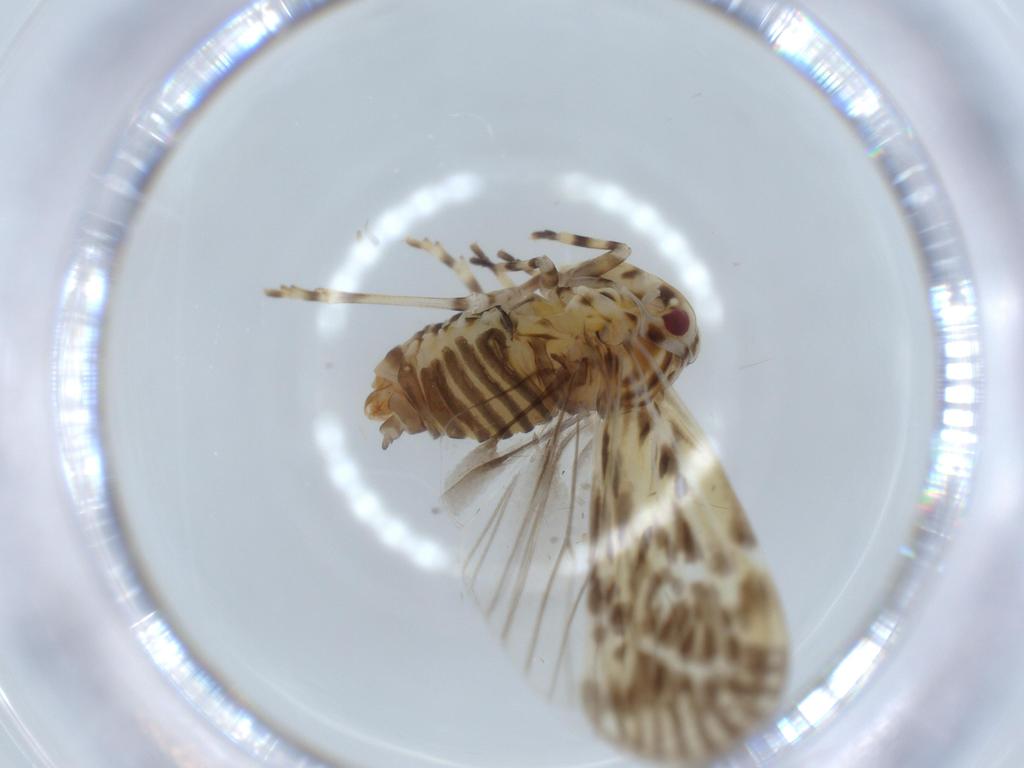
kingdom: Animalia
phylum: Arthropoda
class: Insecta
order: Hemiptera
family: Derbidae
